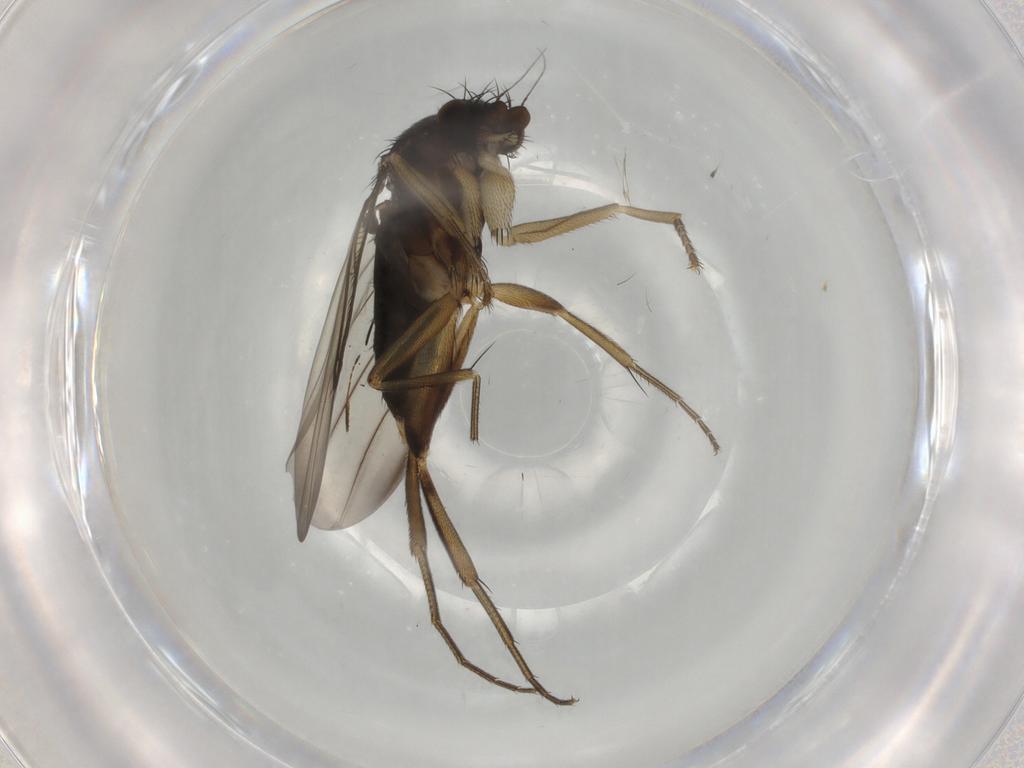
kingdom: Animalia
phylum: Arthropoda
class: Insecta
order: Diptera
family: Phoridae
